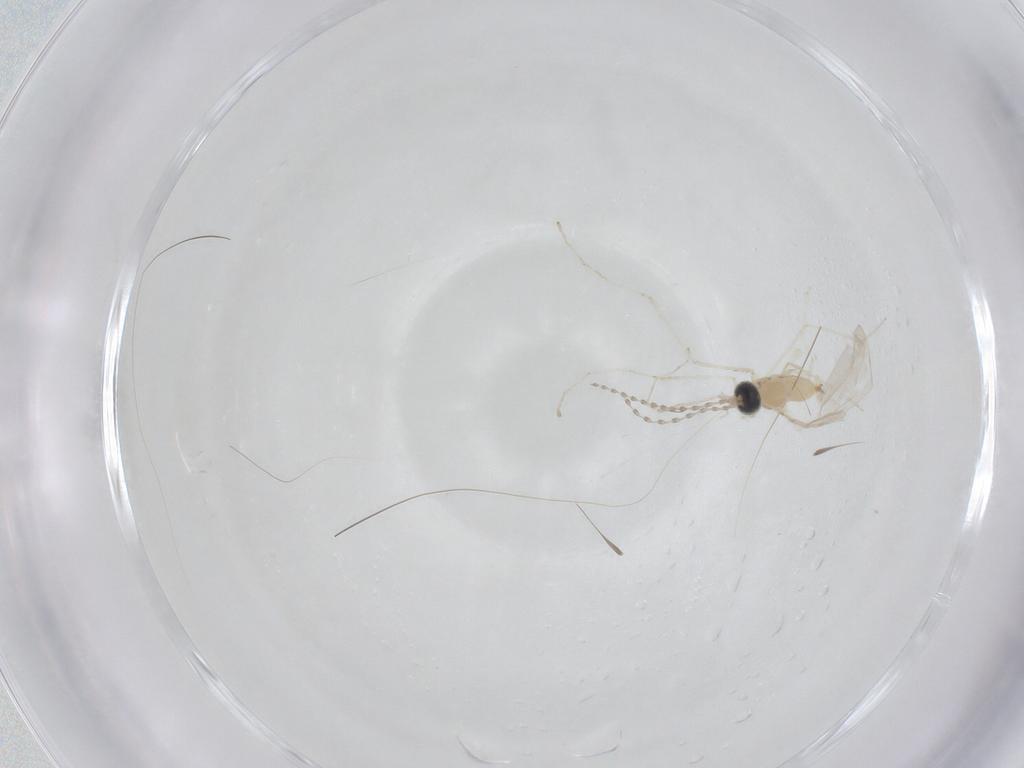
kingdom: Animalia
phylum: Arthropoda
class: Insecta
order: Diptera
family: Cecidomyiidae
